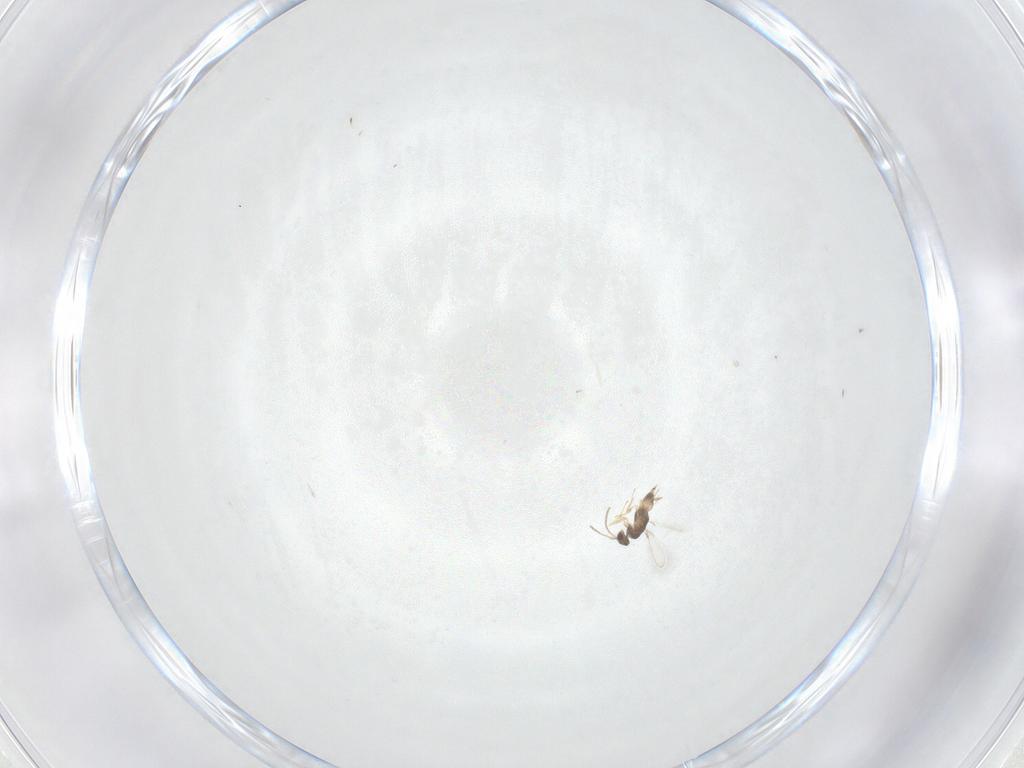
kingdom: Animalia
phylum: Arthropoda
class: Insecta
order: Hymenoptera
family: Mymaridae
